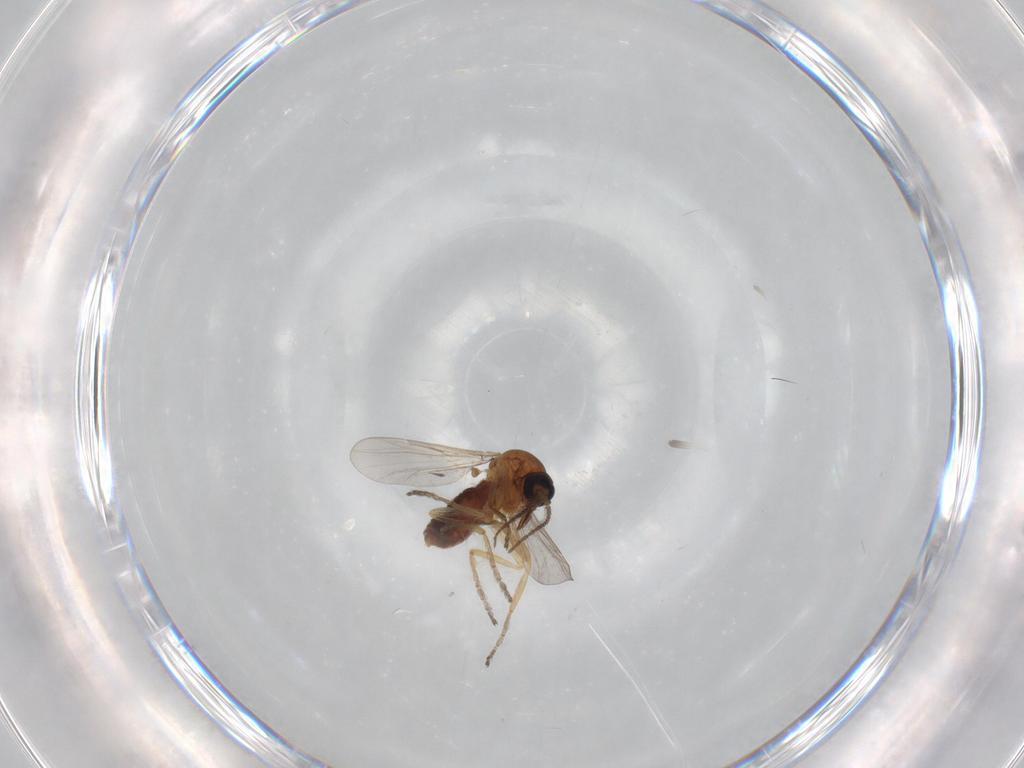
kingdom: Animalia
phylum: Arthropoda
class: Insecta
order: Diptera
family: Ceratopogonidae
